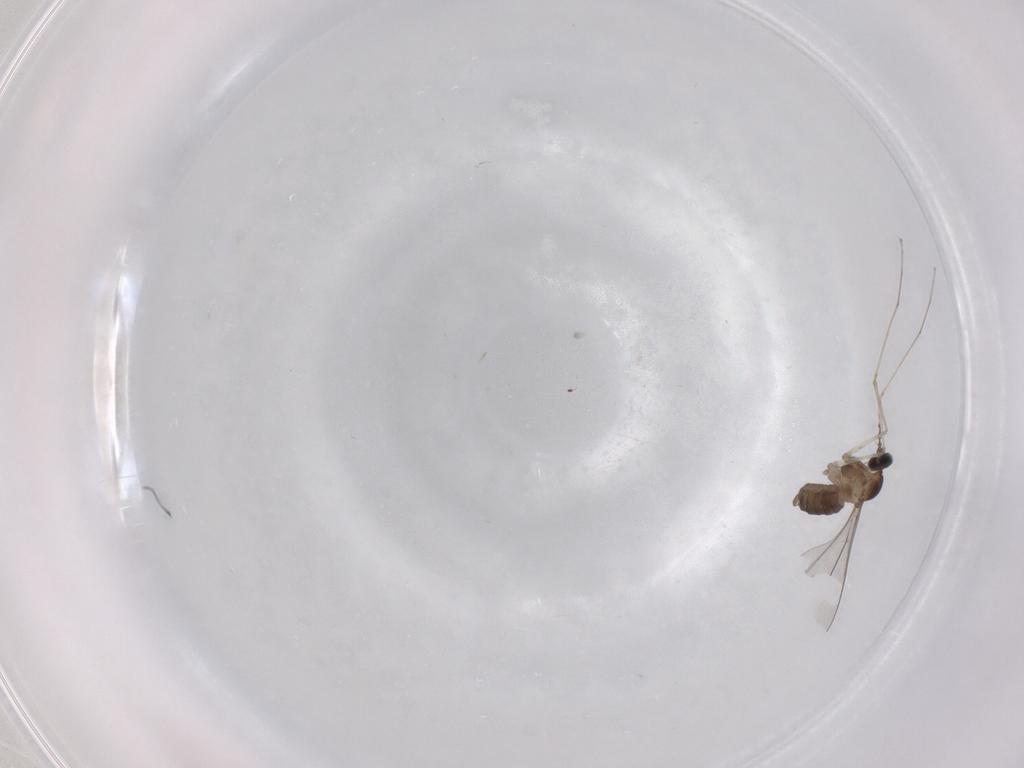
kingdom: Animalia
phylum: Arthropoda
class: Insecta
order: Diptera
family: Cecidomyiidae
